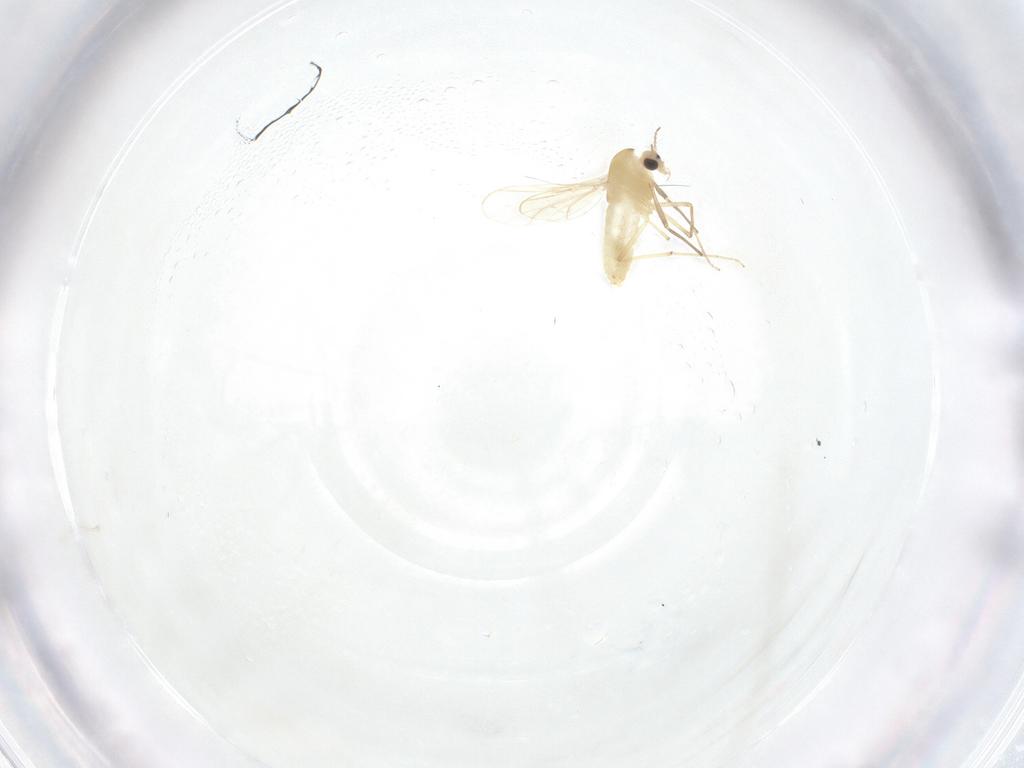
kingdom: Animalia
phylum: Arthropoda
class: Insecta
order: Diptera
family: Chironomidae
